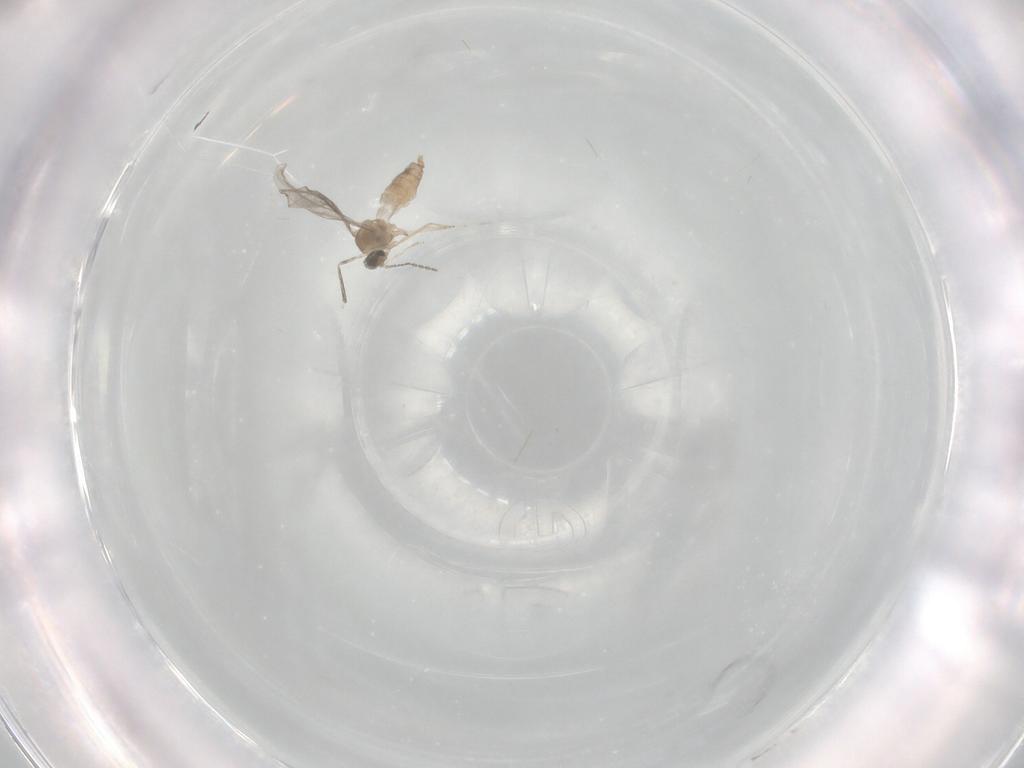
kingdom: Animalia
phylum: Arthropoda
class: Insecta
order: Diptera
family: Cecidomyiidae
